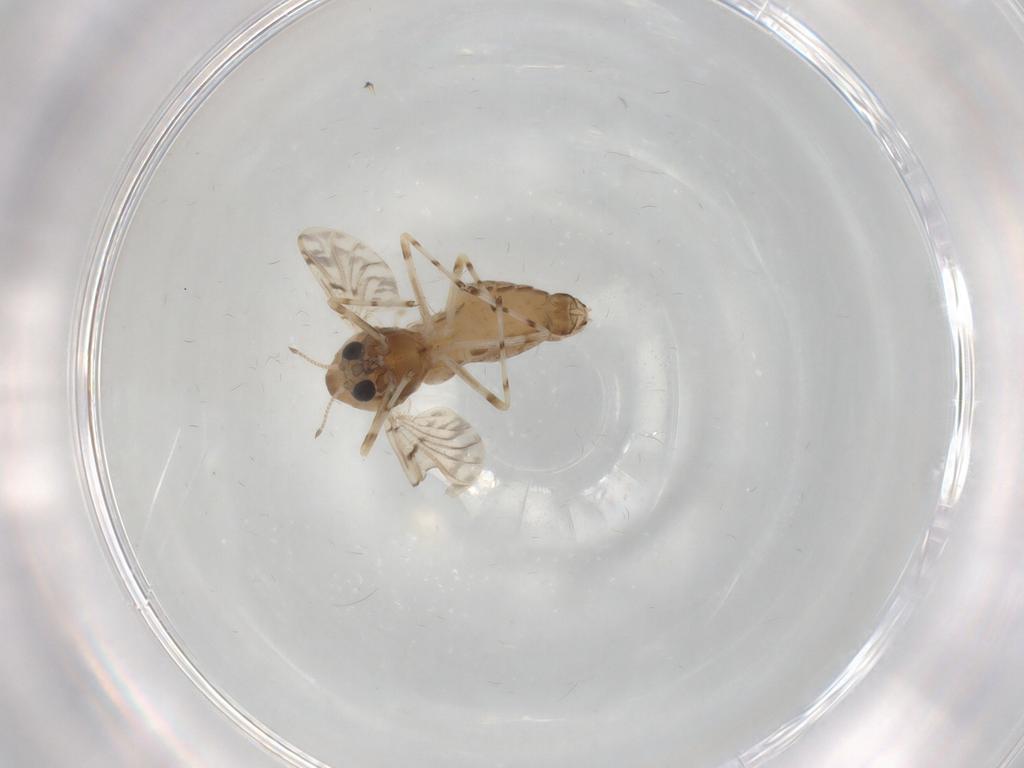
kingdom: Animalia
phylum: Arthropoda
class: Insecta
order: Diptera
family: Chironomidae
